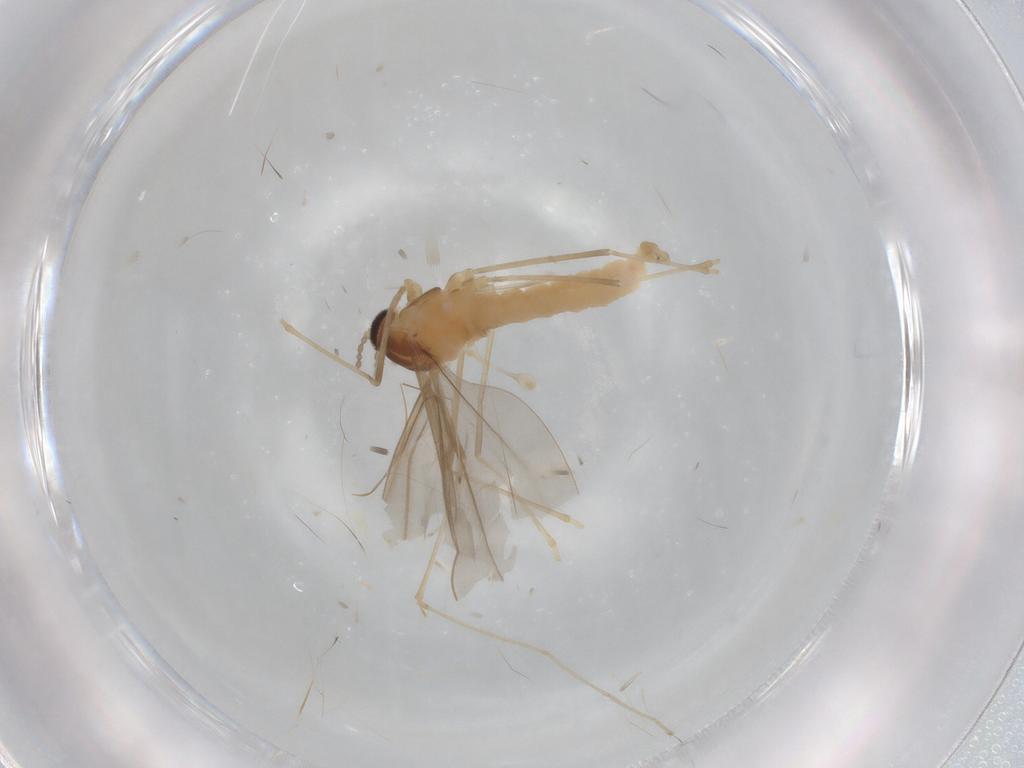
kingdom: Animalia
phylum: Arthropoda
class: Insecta
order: Diptera
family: Cecidomyiidae
